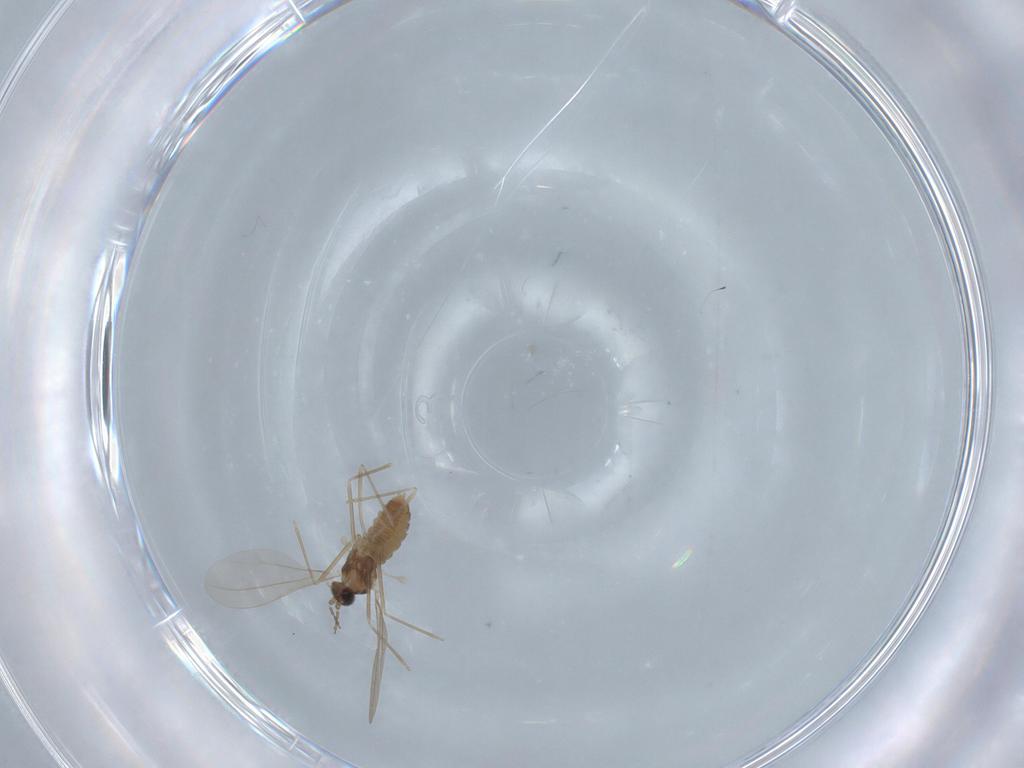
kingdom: Animalia
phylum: Arthropoda
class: Insecta
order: Diptera
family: Cecidomyiidae
